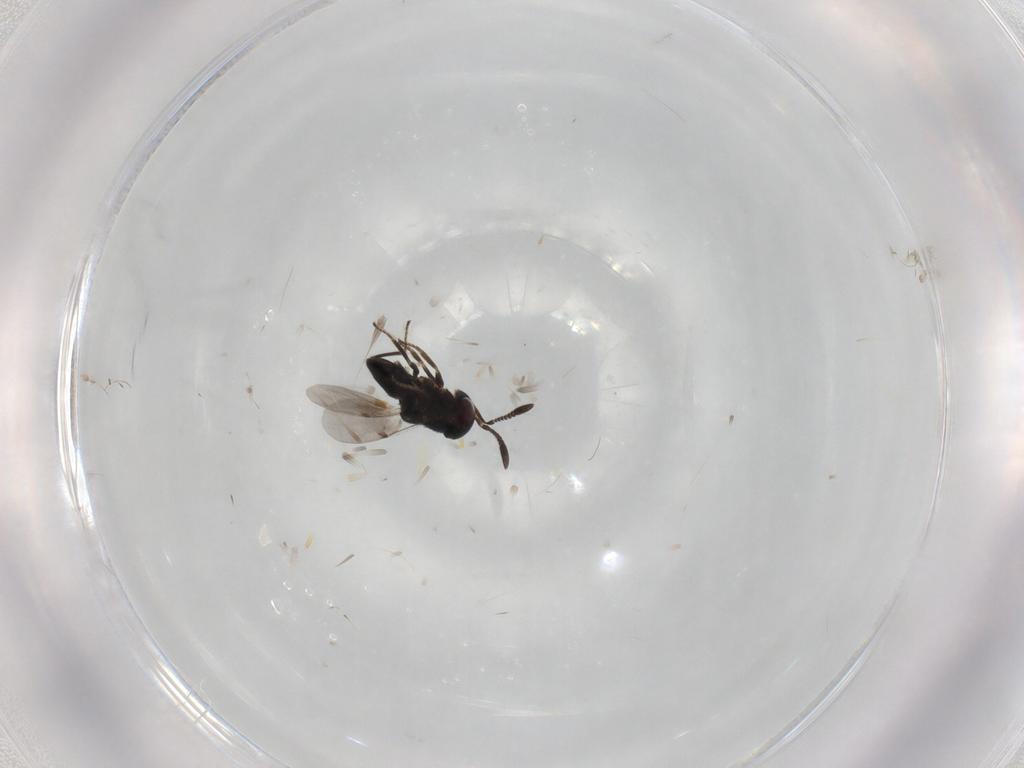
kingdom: Animalia
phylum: Arthropoda
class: Insecta
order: Hymenoptera
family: Encyrtidae
